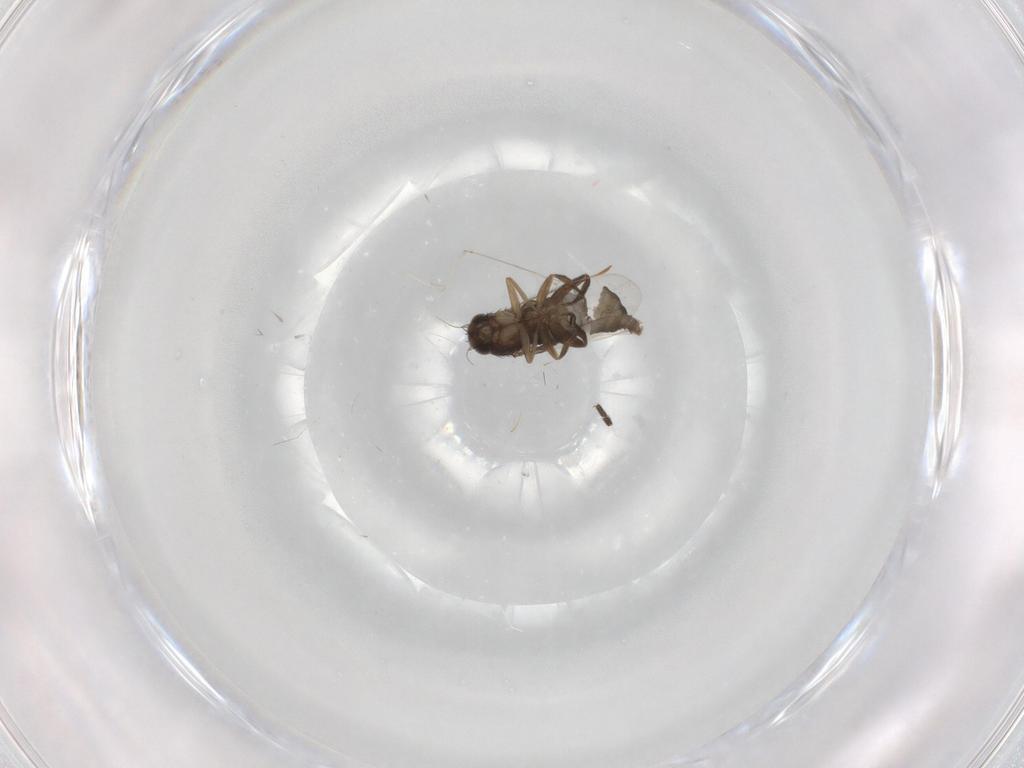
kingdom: Animalia
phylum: Arthropoda
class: Insecta
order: Diptera
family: Phoridae
